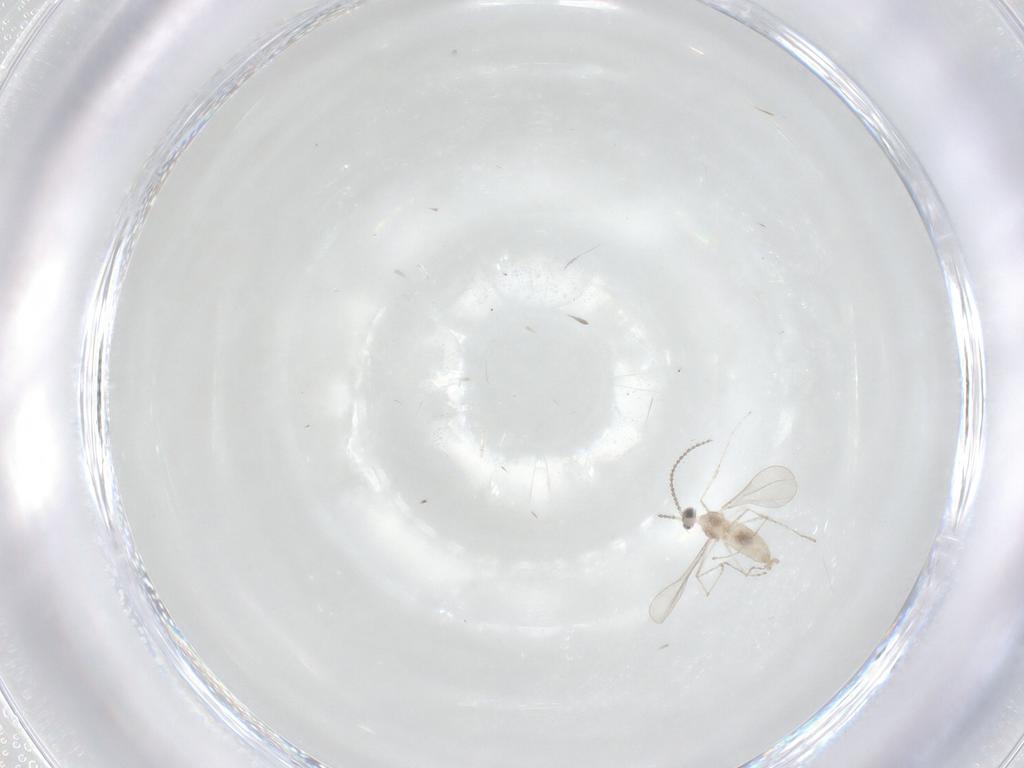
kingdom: Animalia
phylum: Arthropoda
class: Insecta
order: Diptera
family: Cecidomyiidae
